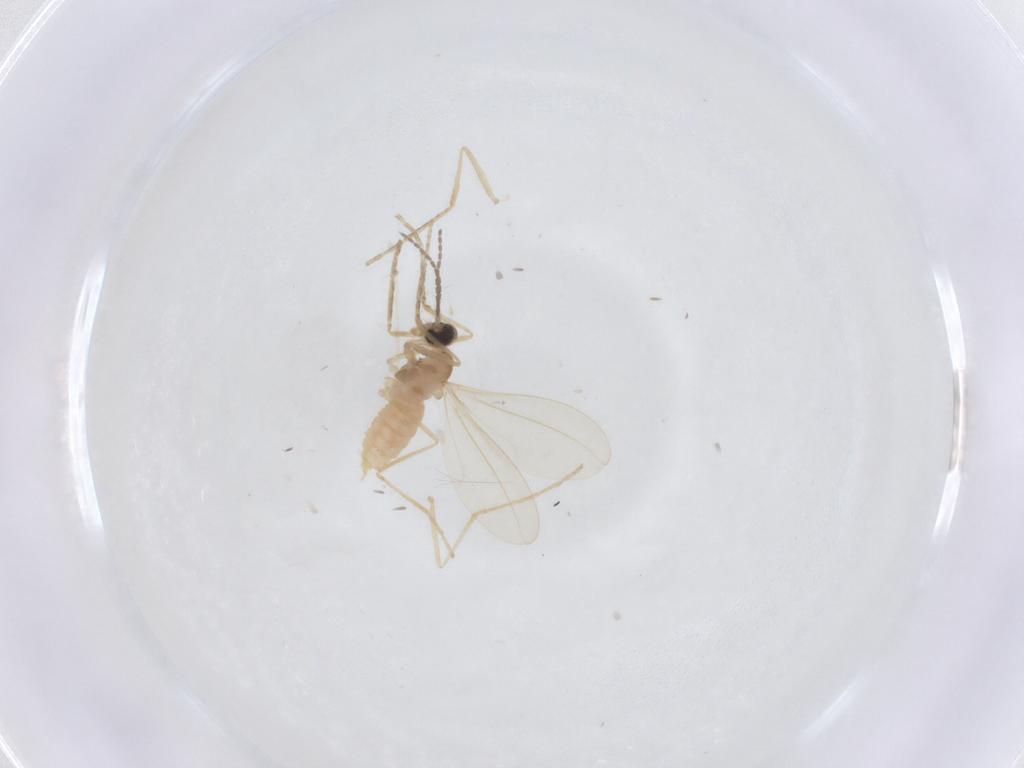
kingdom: Animalia
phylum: Arthropoda
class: Insecta
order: Diptera
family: Cecidomyiidae
